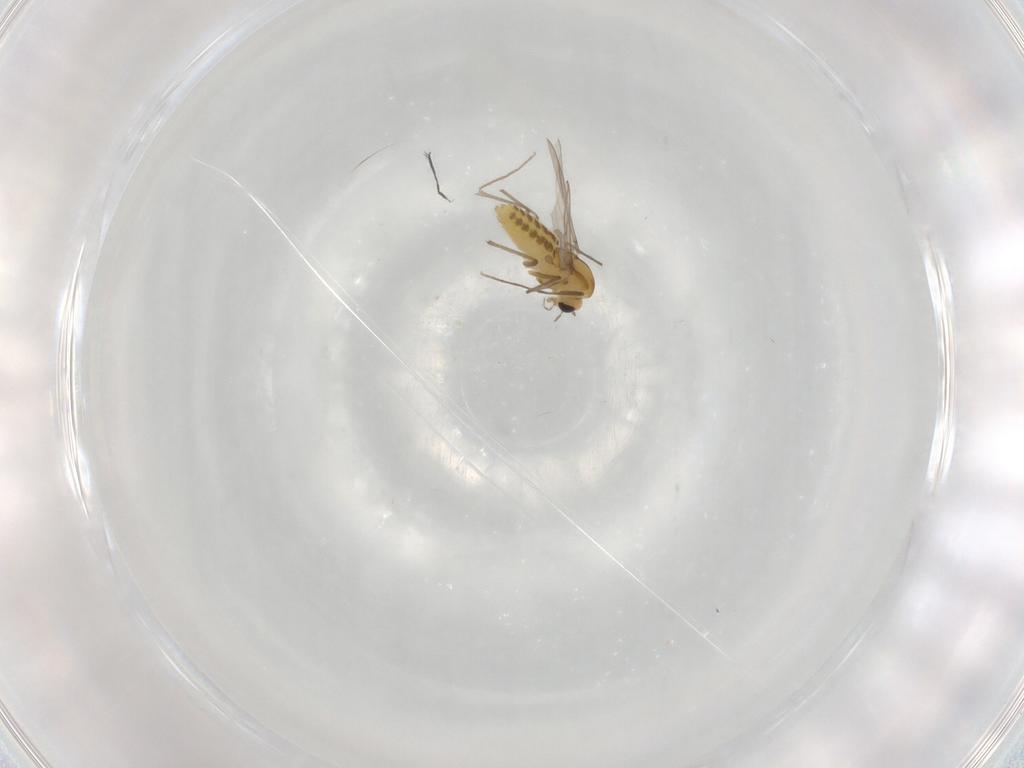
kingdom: Animalia
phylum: Arthropoda
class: Insecta
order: Diptera
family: Chironomidae
